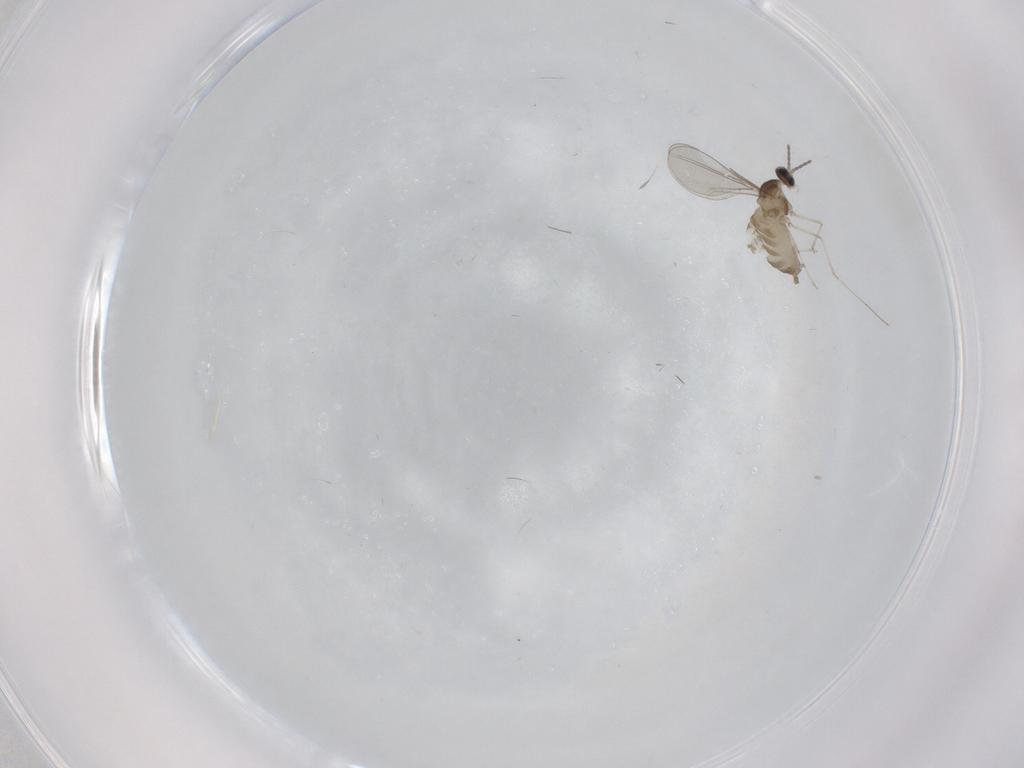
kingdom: Animalia
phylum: Arthropoda
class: Insecta
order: Diptera
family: Cecidomyiidae
